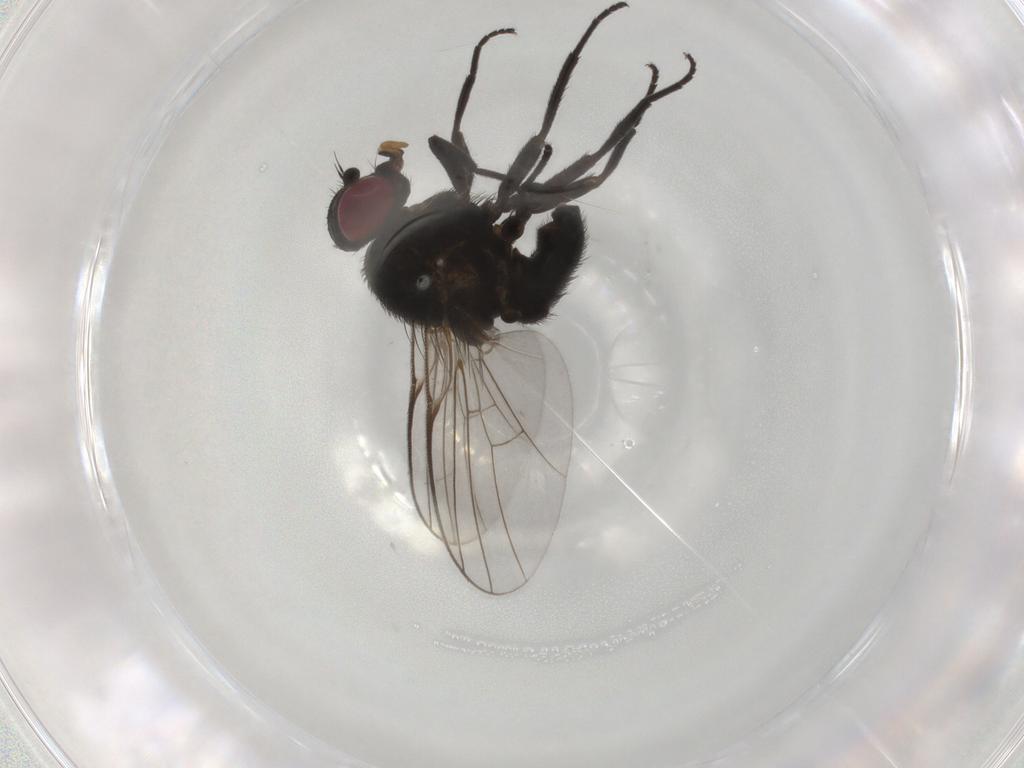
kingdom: Animalia
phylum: Arthropoda
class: Insecta
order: Diptera
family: Agromyzidae
